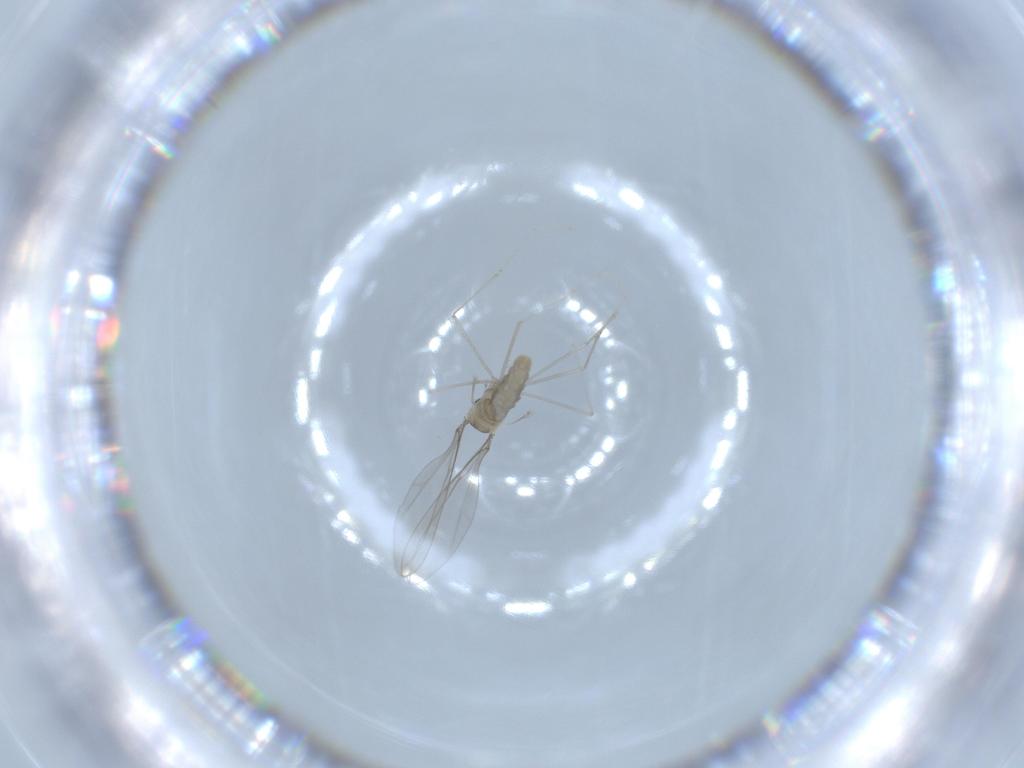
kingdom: Animalia
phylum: Arthropoda
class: Insecta
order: Diptera
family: Cecidomyiidae
